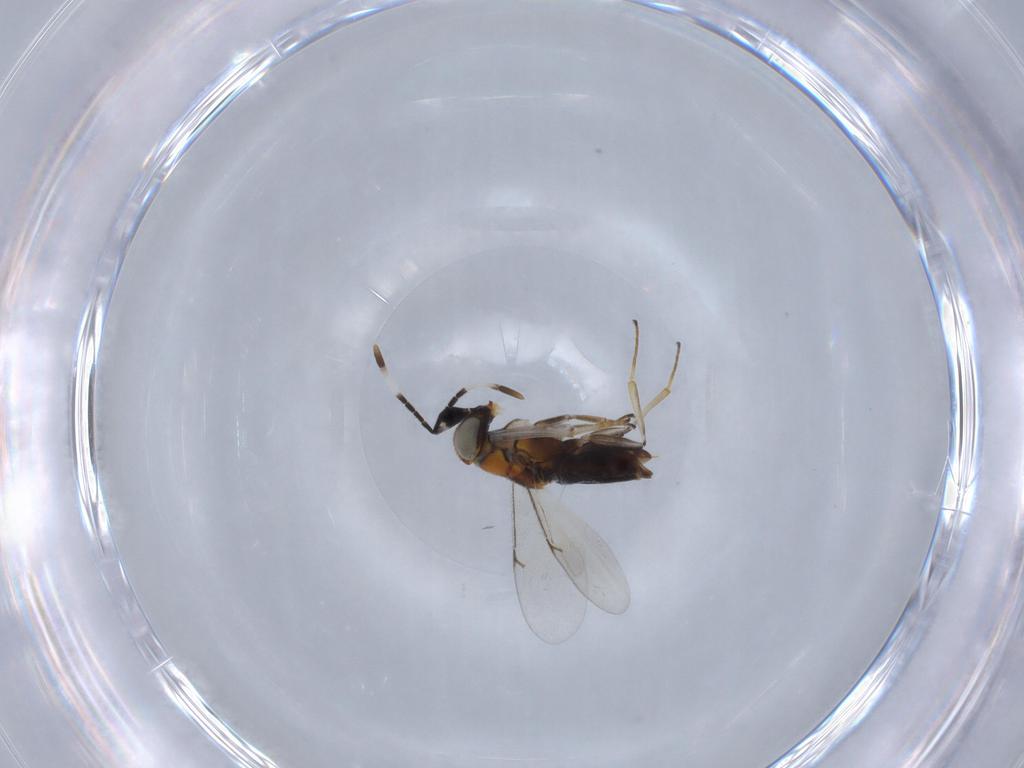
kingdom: Animalia
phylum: Arthropoda
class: Insecta
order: Hymenoptera
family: Encyrtidae
